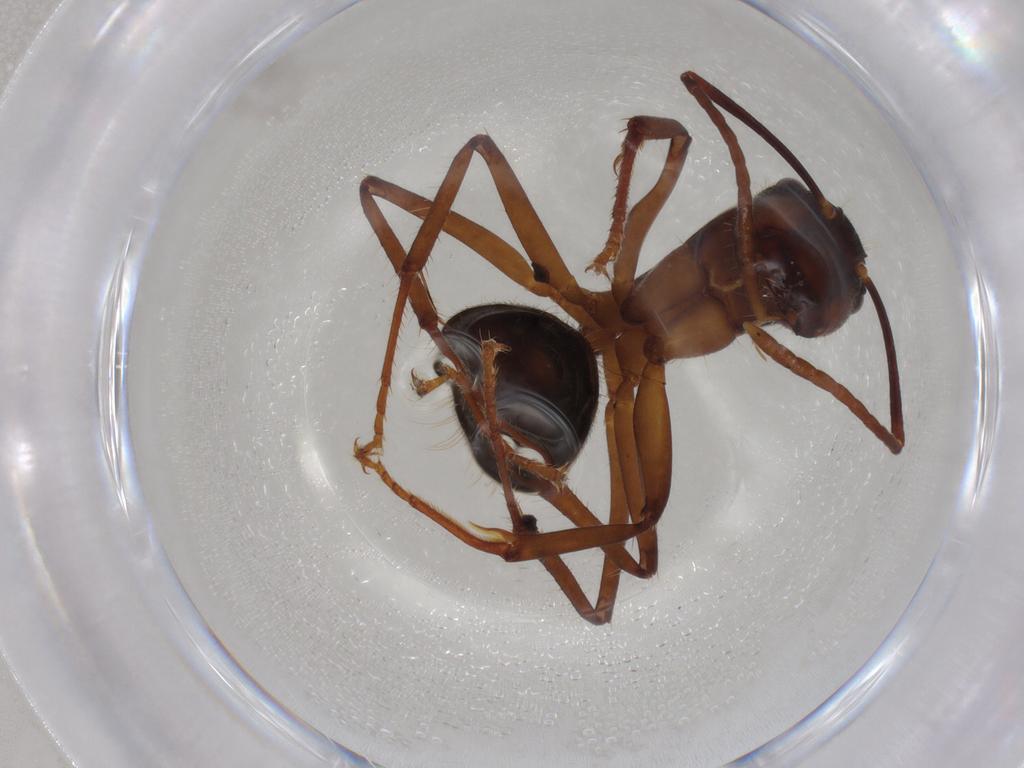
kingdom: Animalia
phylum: Arthropoda
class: Insecta
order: Hymenoptera
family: Formicidae
